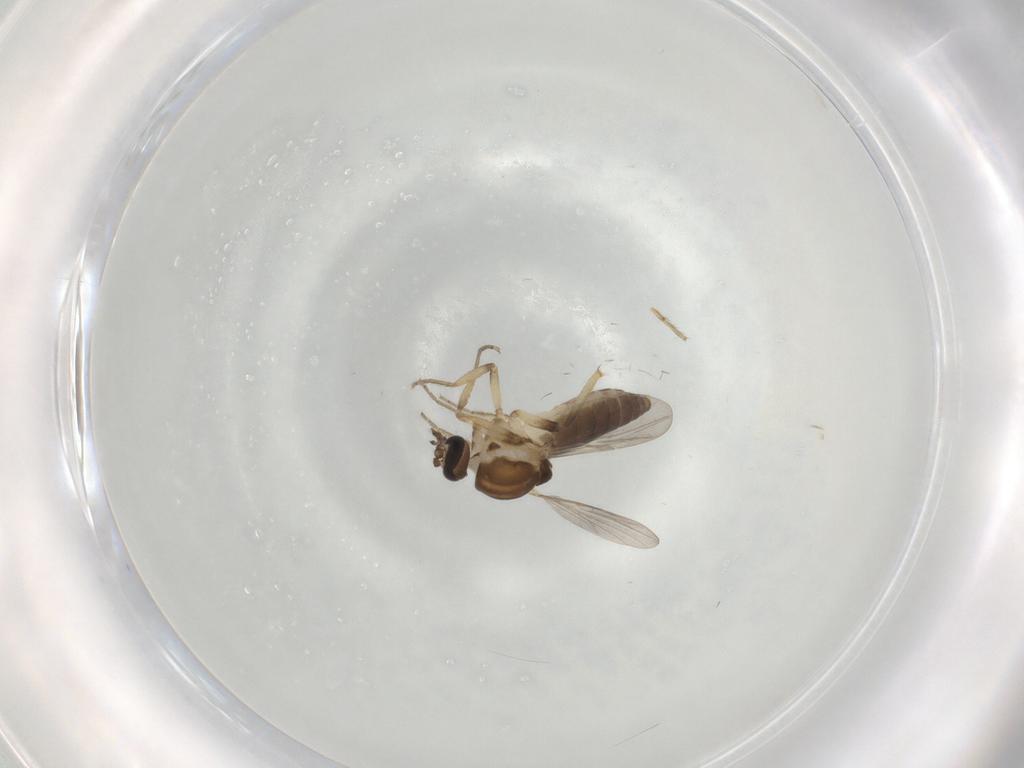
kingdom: Animalia
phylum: Arthropoda
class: Insecta
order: Diptera
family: Ceratopogonidae
